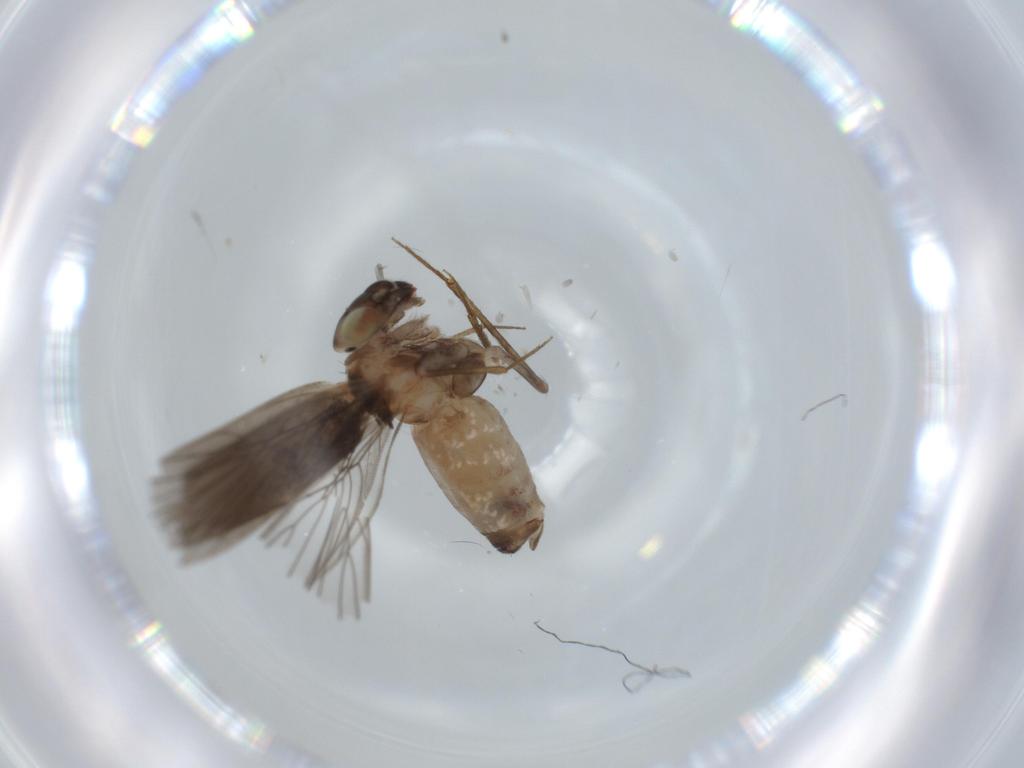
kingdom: Animalia
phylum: Arthropoda
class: Insecta
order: Psocodea
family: Lepidopsocidae
